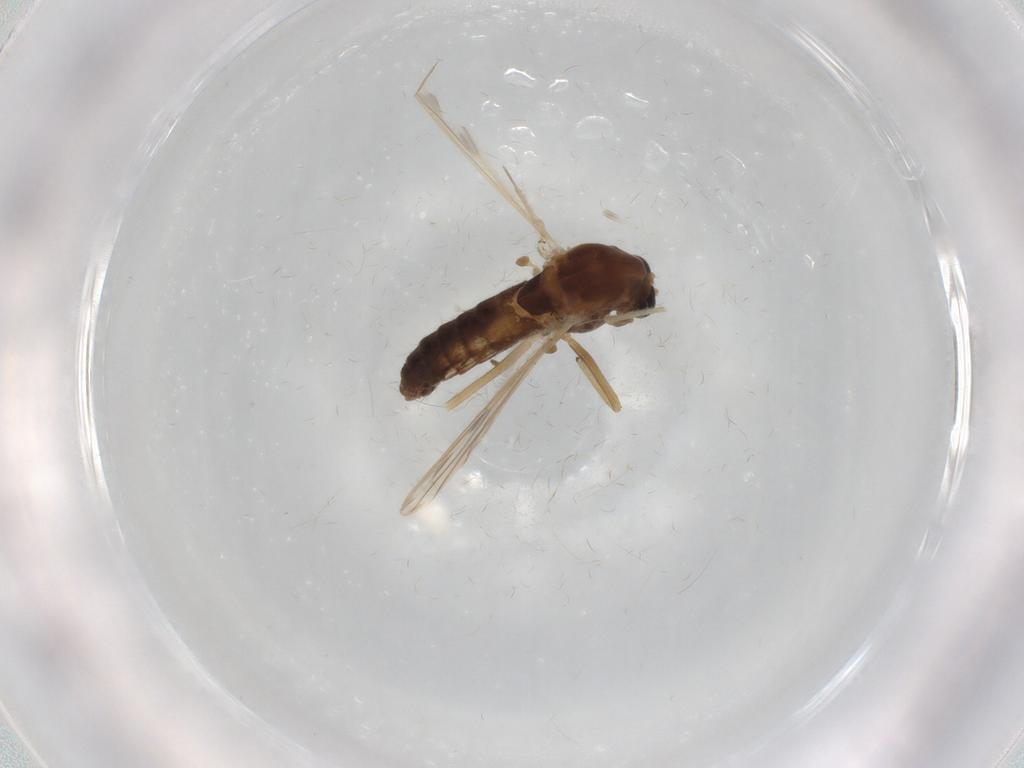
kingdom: Animalia
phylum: Arthropoda
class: Insecta
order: Diptera
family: Chironomidae
